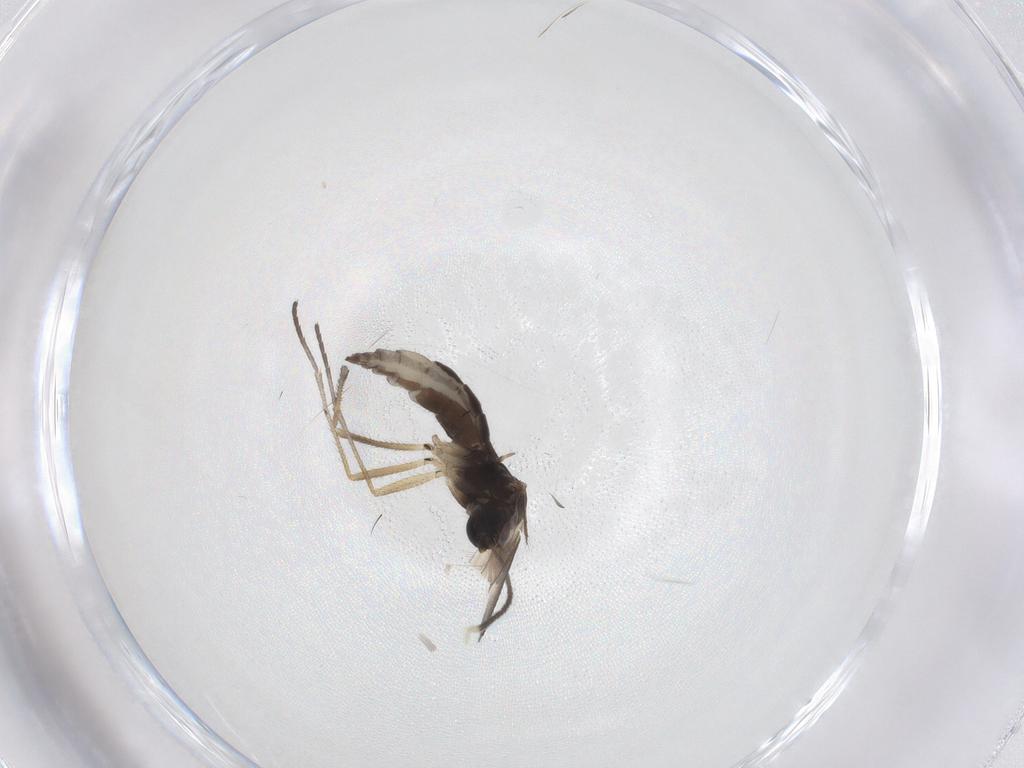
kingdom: Animalia
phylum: Arthropoda
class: Insecta
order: Diptera
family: Sciaridae
